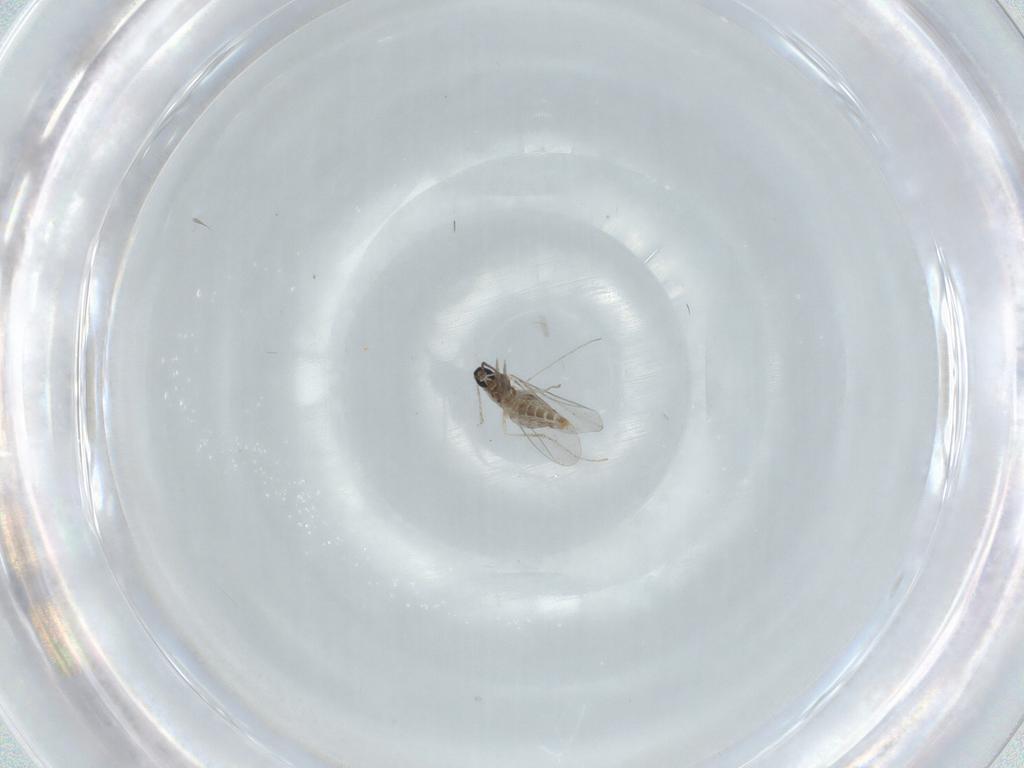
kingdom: Animalia
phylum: Arthropoda
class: Insecta
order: Diptera
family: Cecidomyiidae
